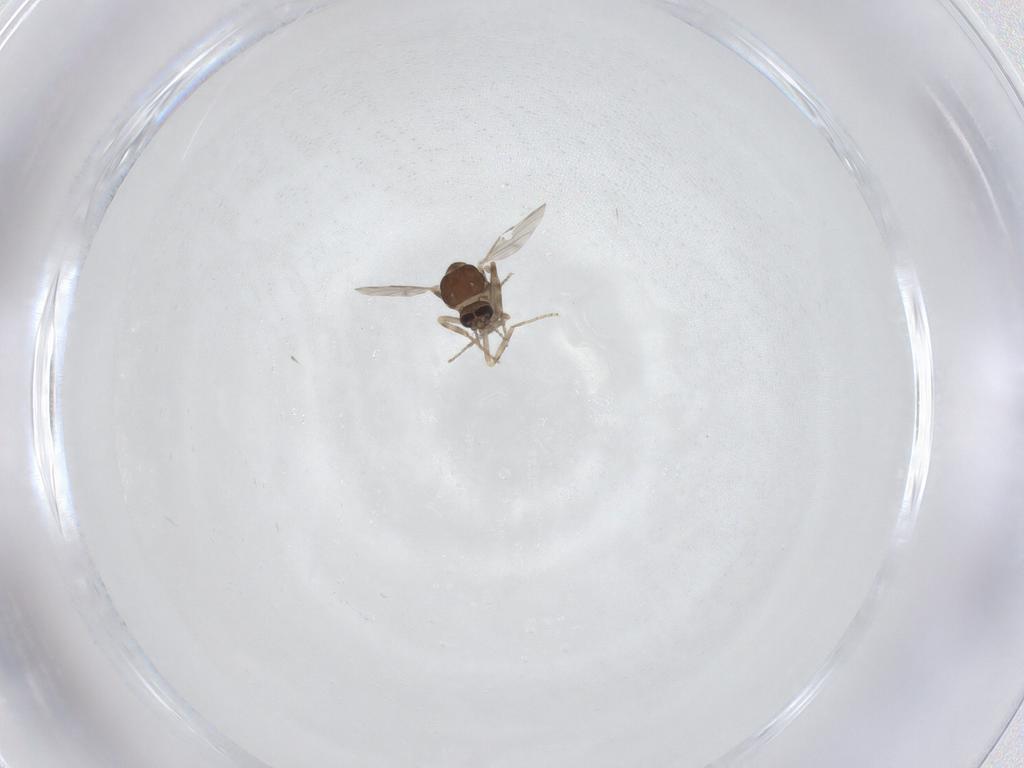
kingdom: Animalia
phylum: Arthropoda
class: Insecta
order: Diptera
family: Ceratopogonidae
